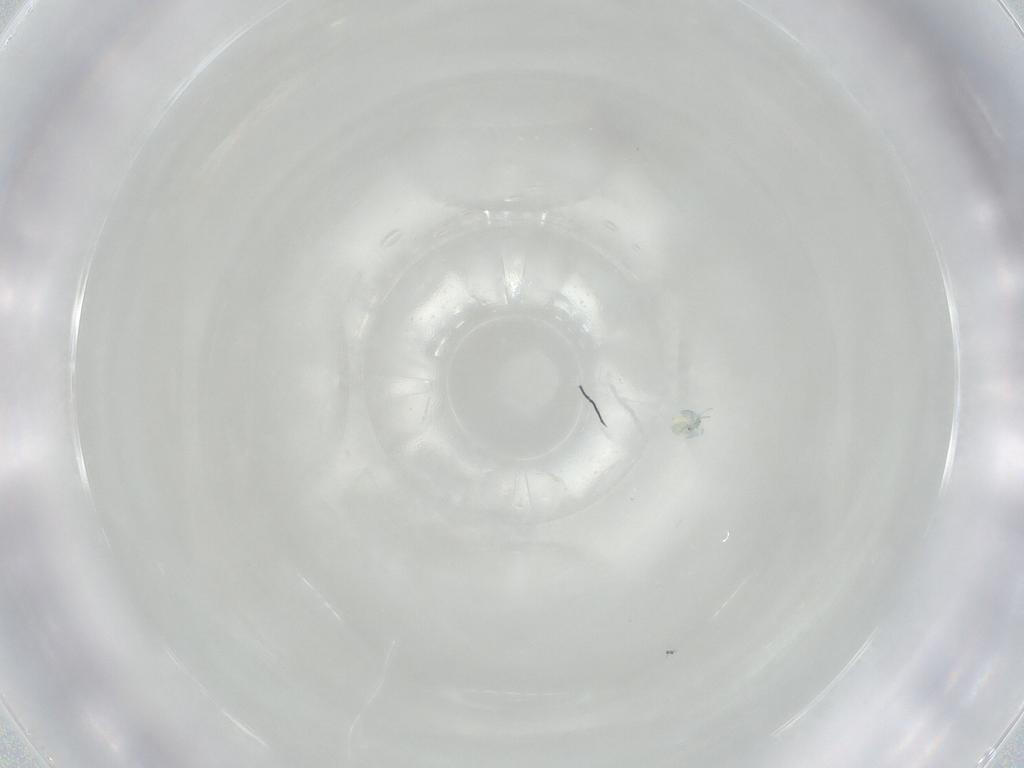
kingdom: Animalia
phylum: Arthropoda
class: Arachnida
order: Trombidiformes
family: Arrenuridae
